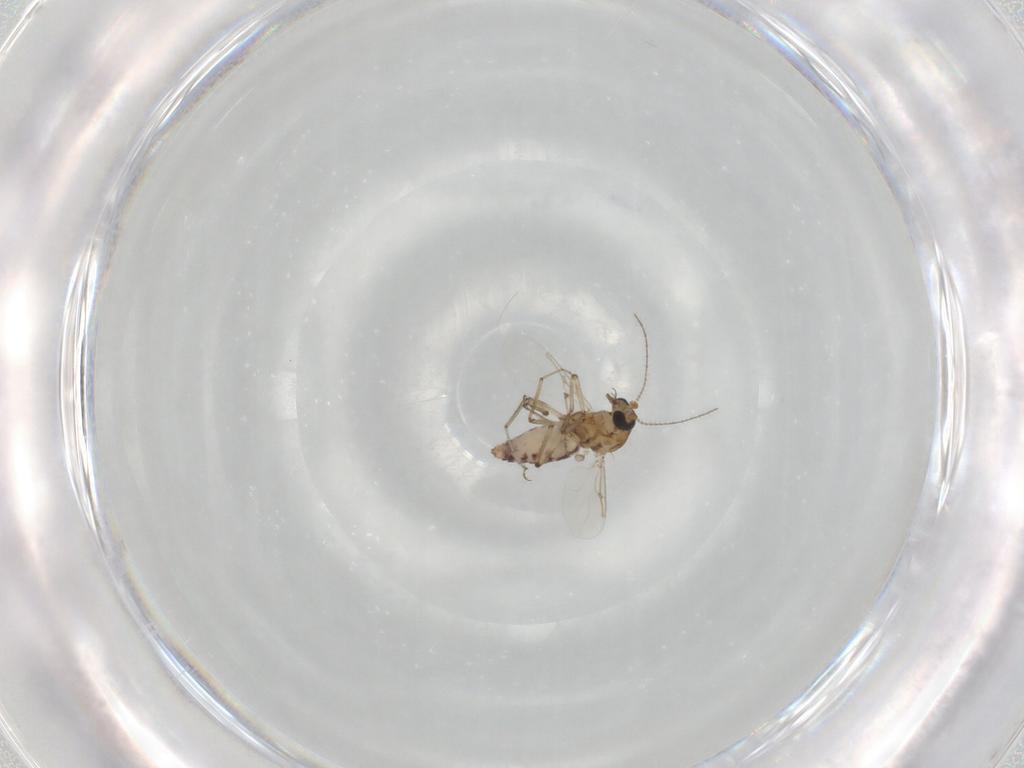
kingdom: Animalia
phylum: Arthropoda
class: Insecta
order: Diptera
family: Ceratopogonidae
